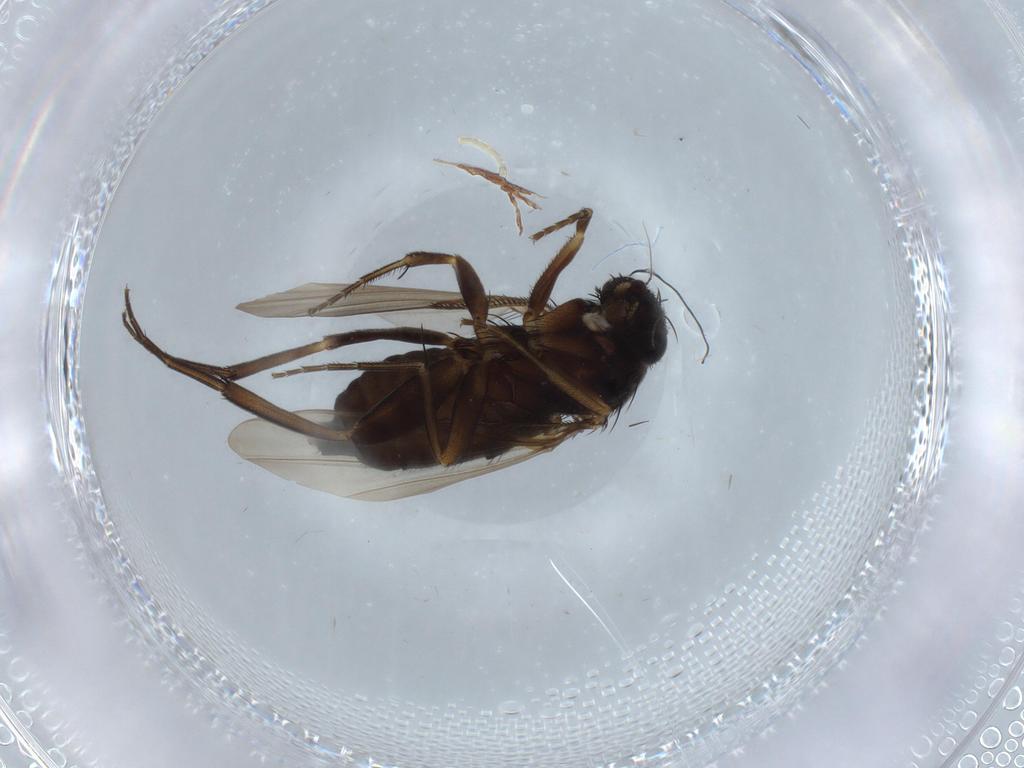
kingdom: Animalia
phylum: Arthropoda
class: Insecta
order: Diptera
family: Phoridae
